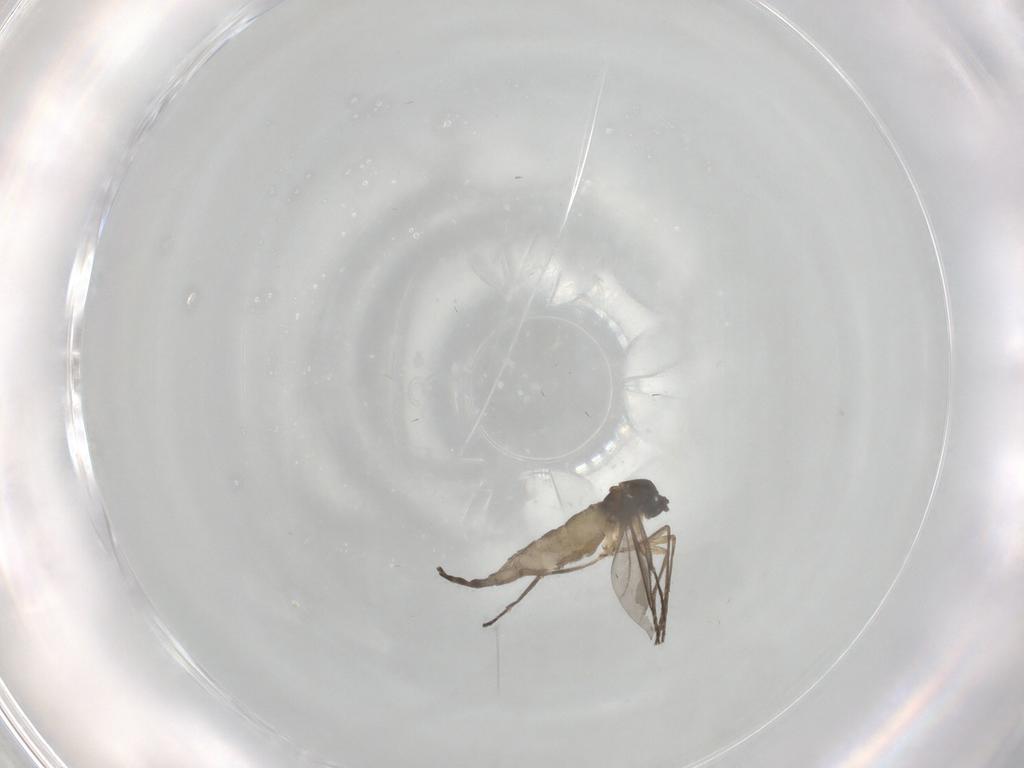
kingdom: Animalia
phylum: Arthropoda
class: Insecta
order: Diptera
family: Sciaridae
